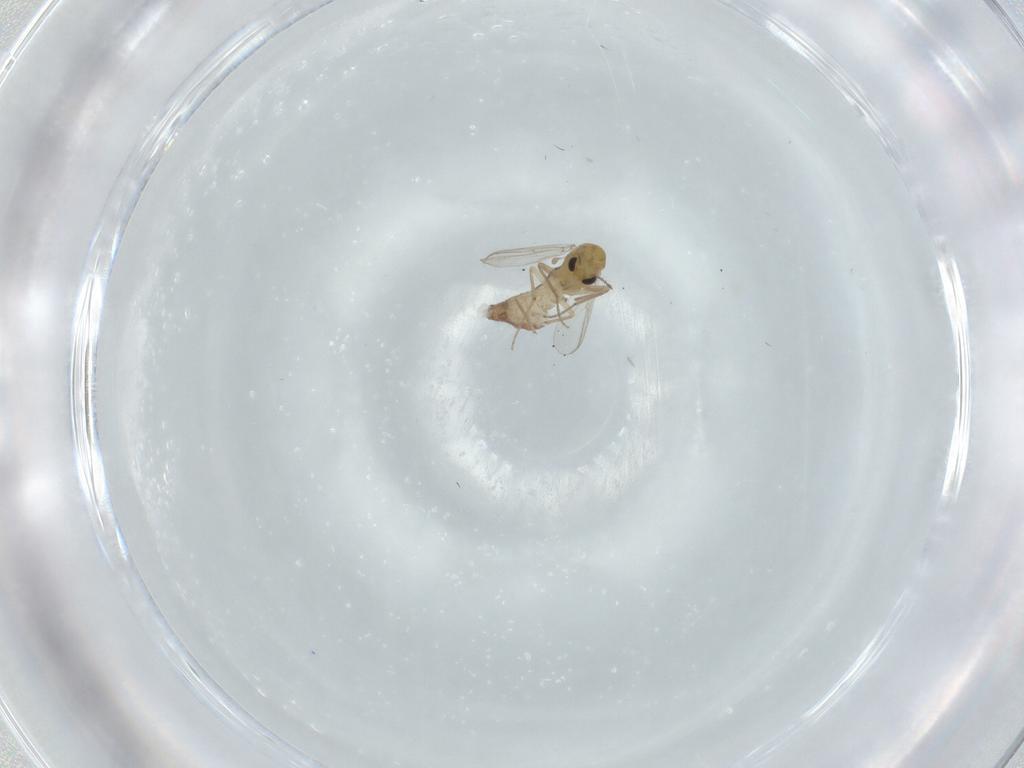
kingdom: Animalia
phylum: Arthropoda
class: Insecta
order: Diptera
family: Chironomidae
